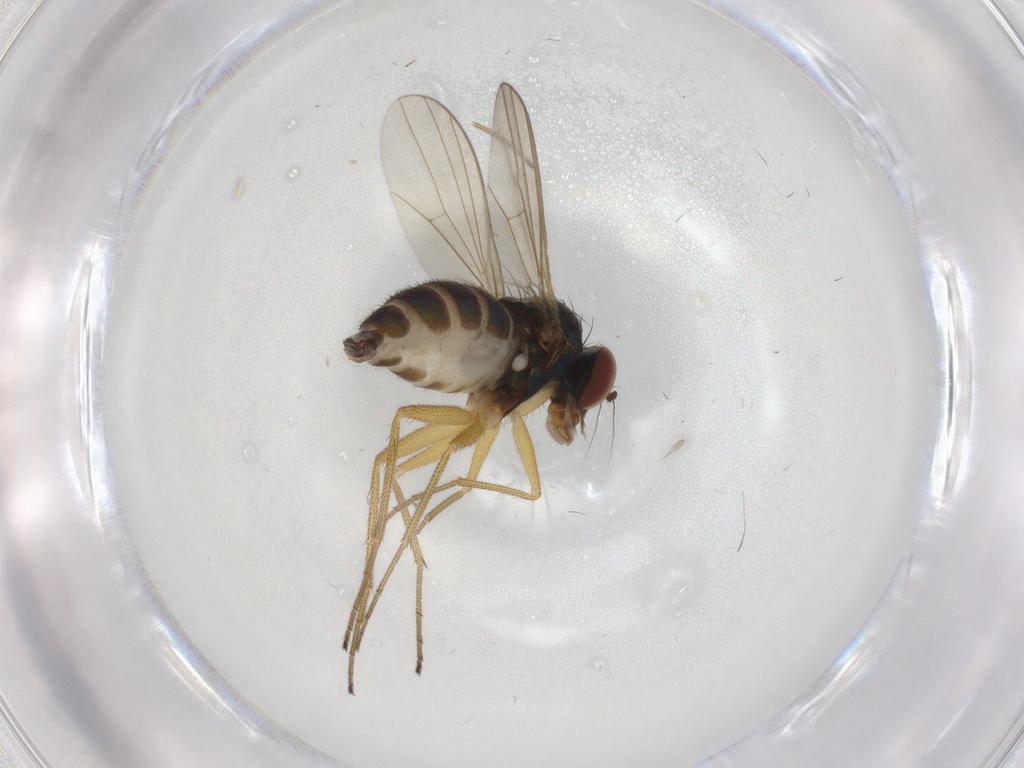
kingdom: Animalia
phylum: Arthropoda
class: Insecta
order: Diptera
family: Dolichopodidae
